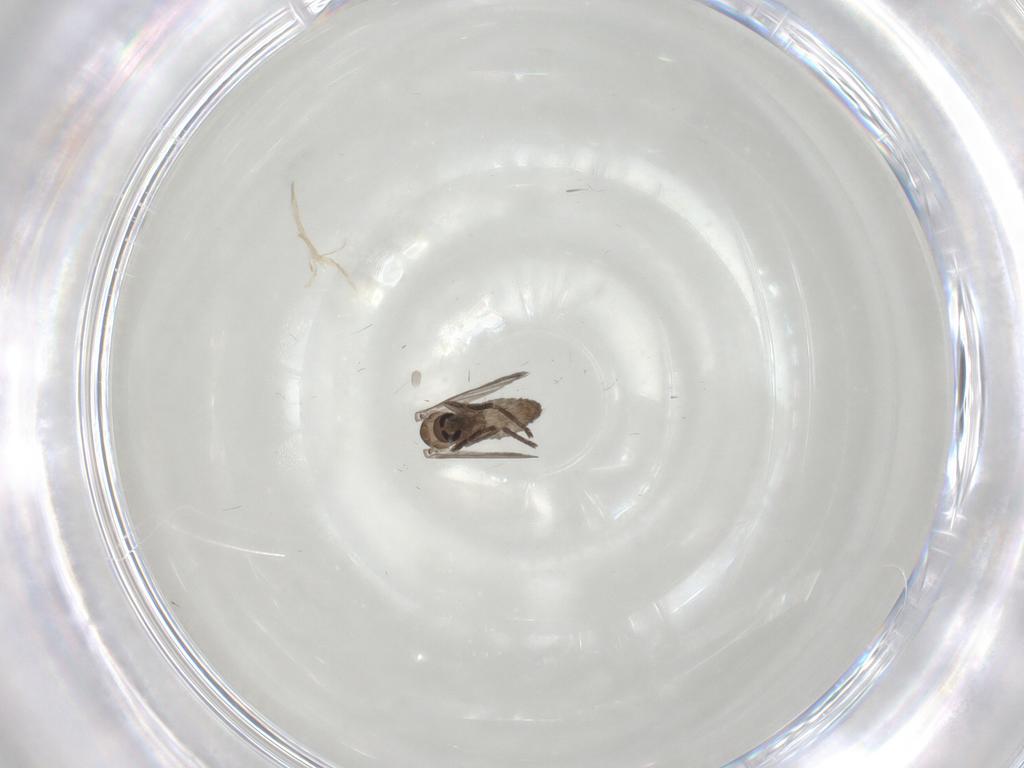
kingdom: Animalia
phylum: Arthropoda
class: Insecta
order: Diptera
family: Psychodidae
